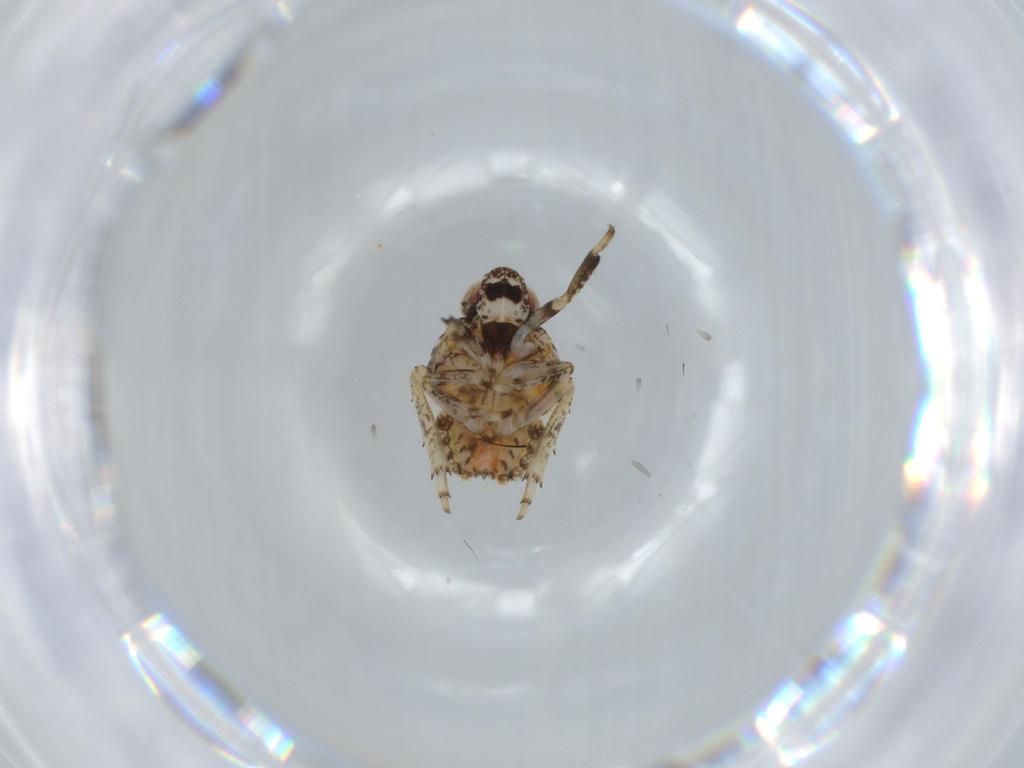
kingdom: Animalia
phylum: Arthropoda
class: Insecta
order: Hemiptera
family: Issidae
